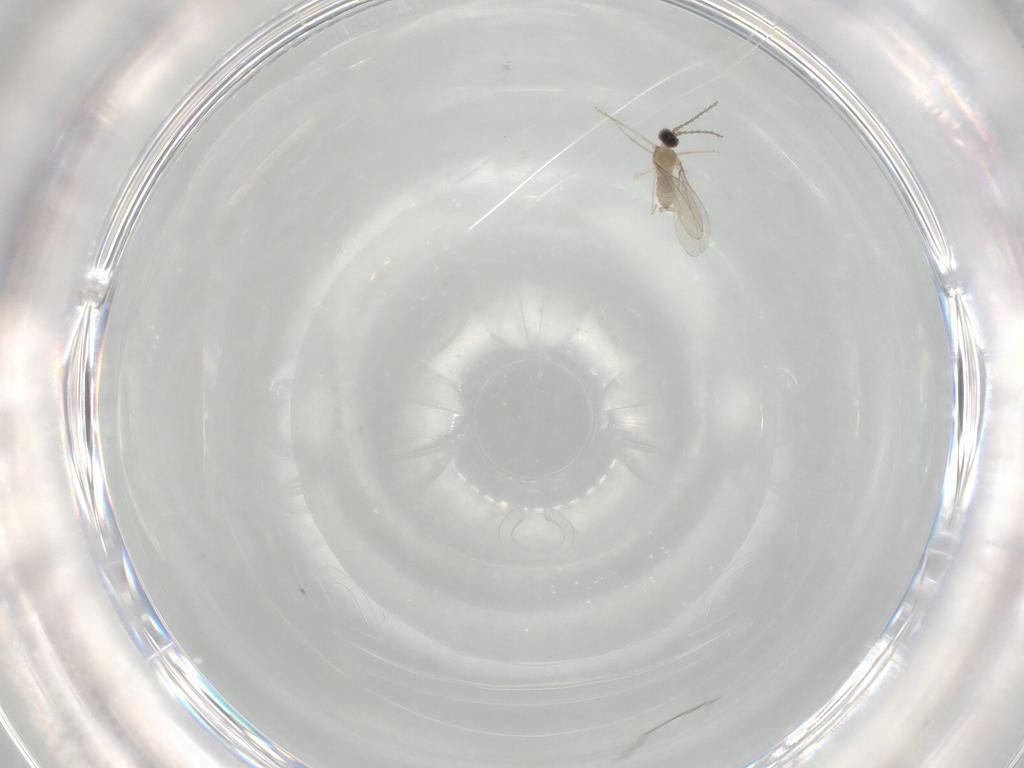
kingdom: Animalia
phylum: Arthropoda
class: Insecta
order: Diptera
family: Cecidomyiidae
